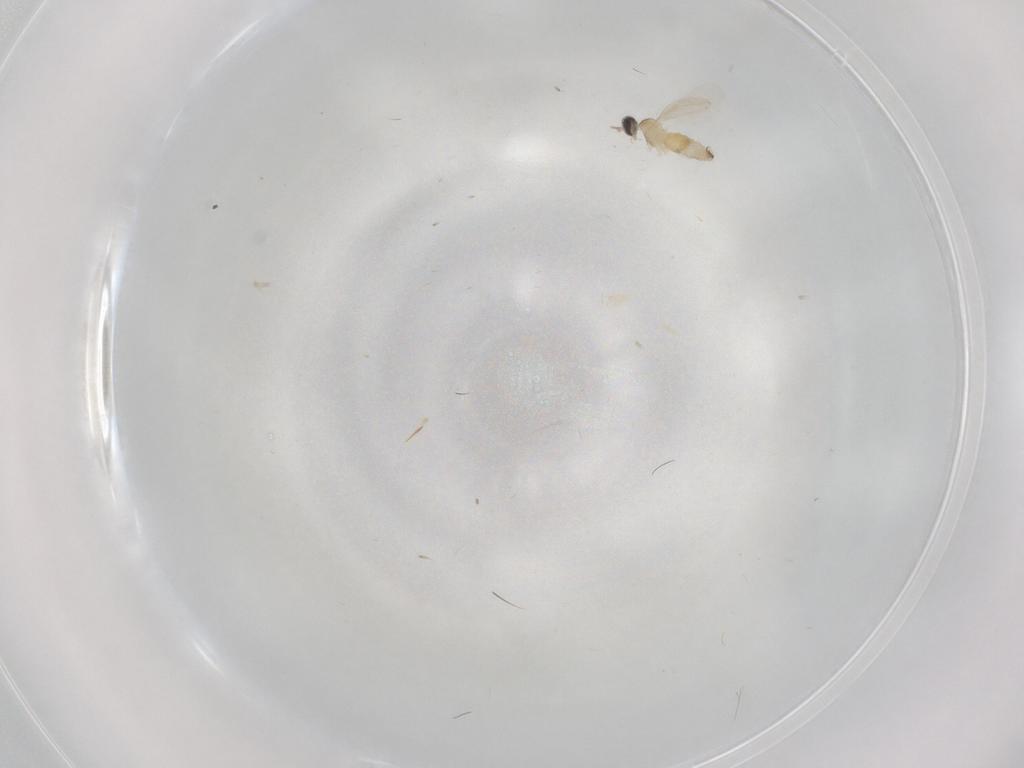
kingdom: Animalia
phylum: Arthropoda
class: Insecta
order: Diptera
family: Cecidomyiidae
